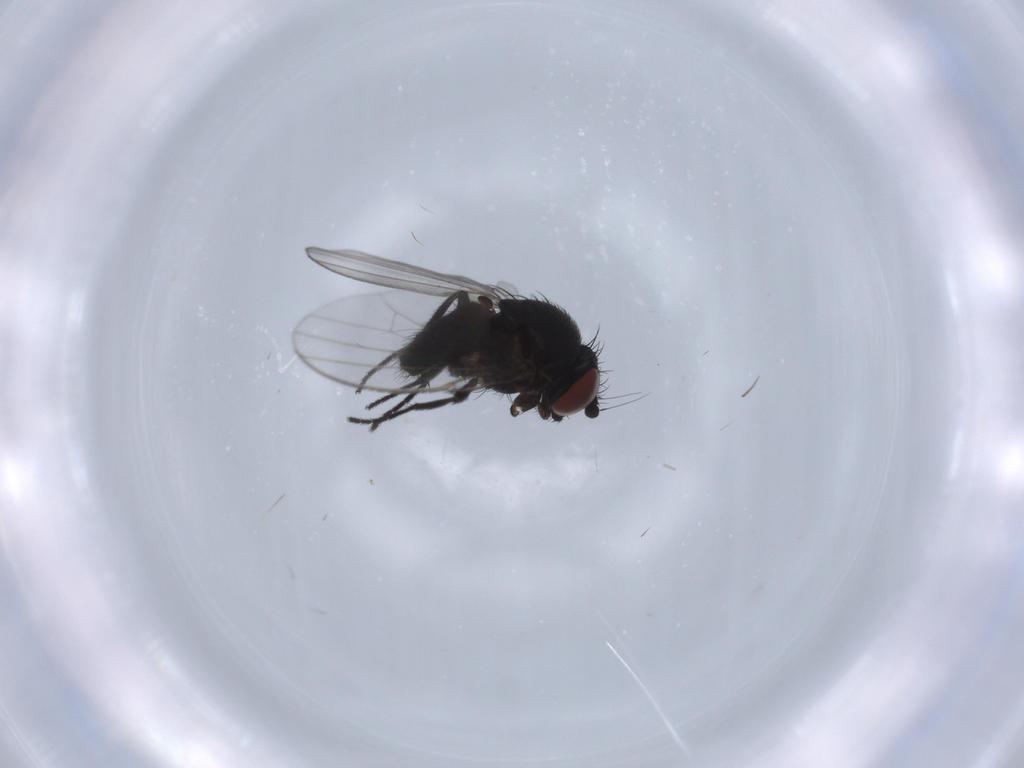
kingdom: Animalia
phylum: Arthropoda
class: Insecta
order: Diptera
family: Milichiidae
